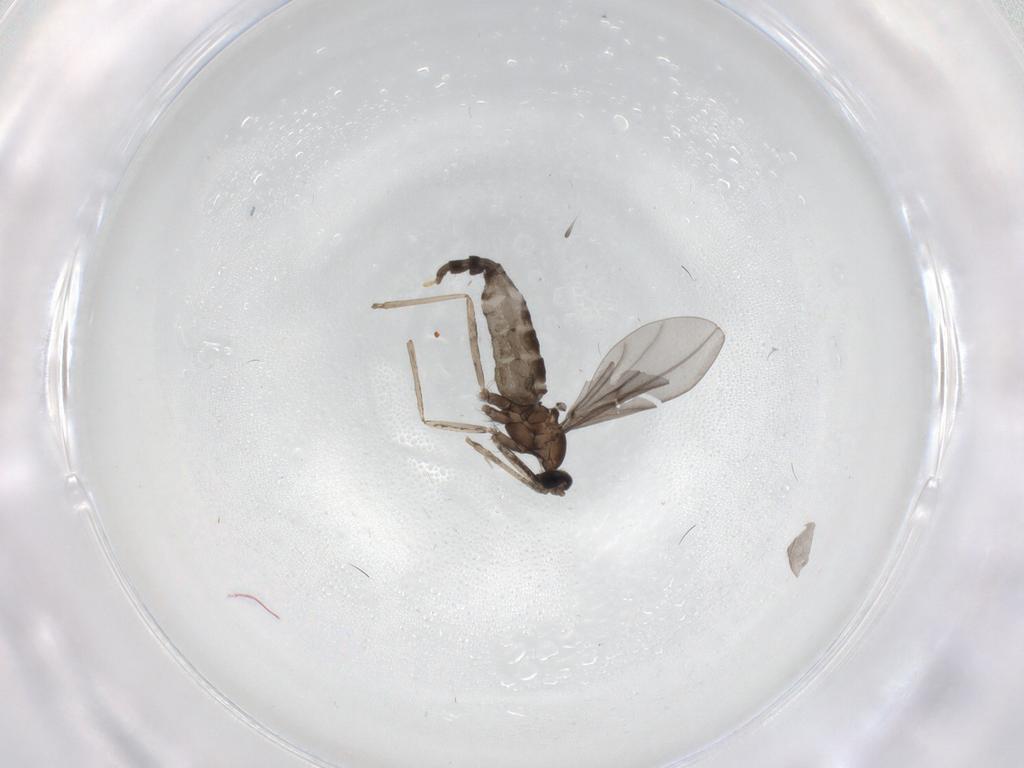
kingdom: Animalia
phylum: Arthropoda
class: Insecta
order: Diptera
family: Cecidomyiidae
